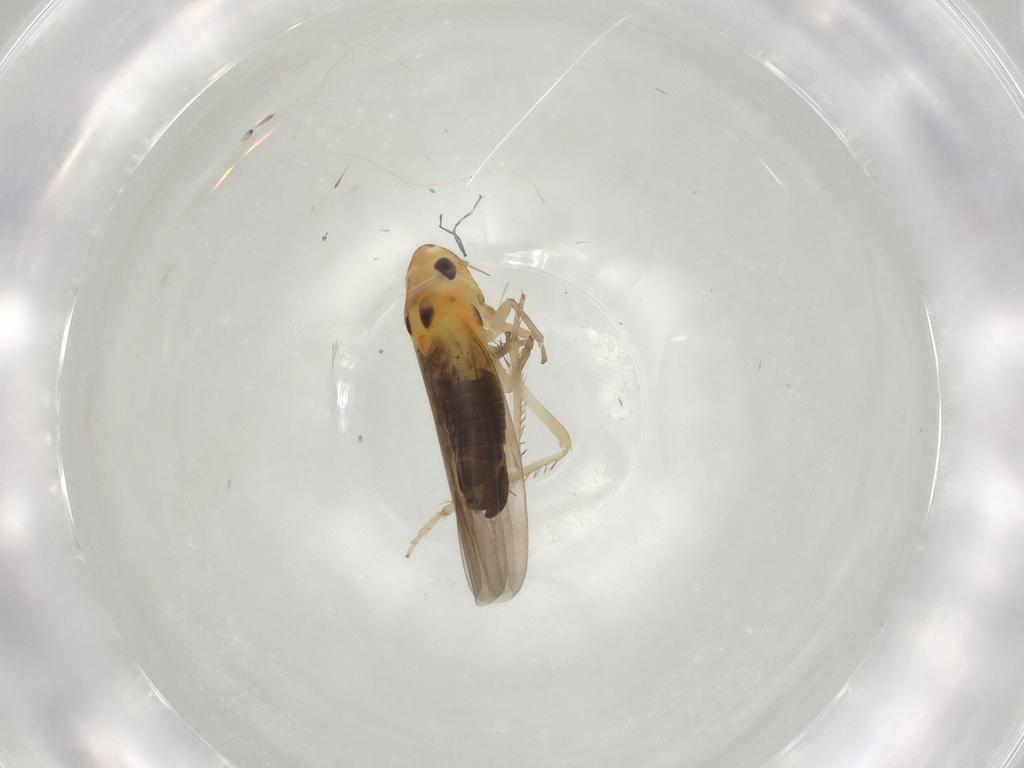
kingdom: Animalia
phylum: Arthropoda
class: Insecta
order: Hemiptera
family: Cicadellidae
